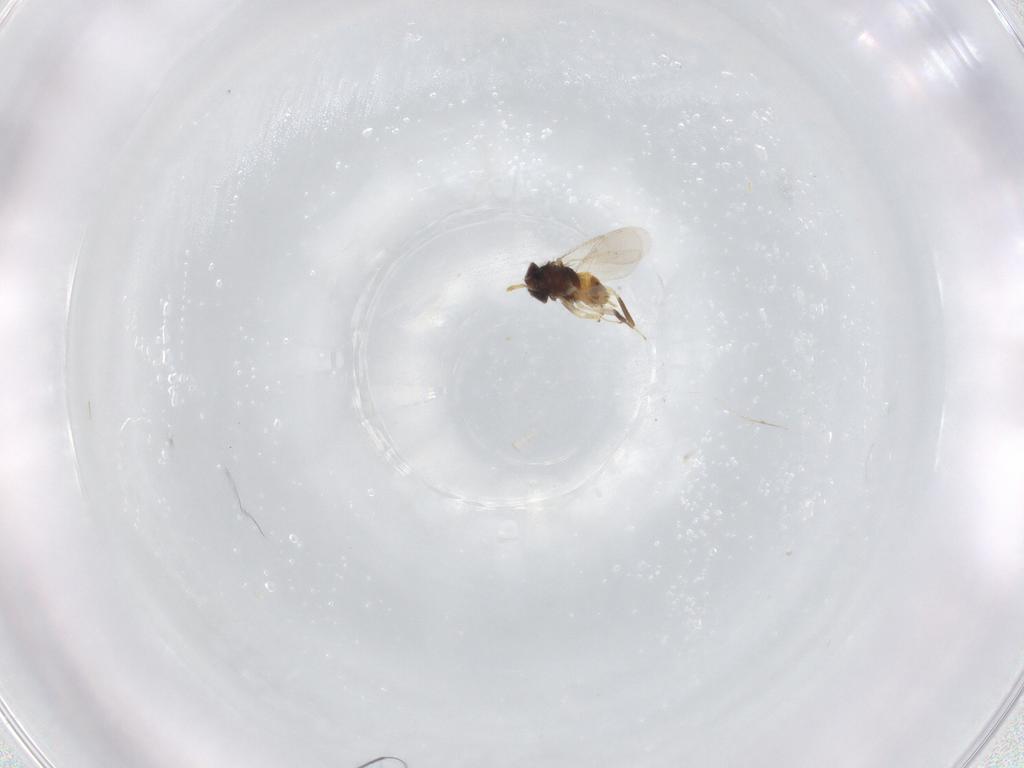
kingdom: Animalia
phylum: Arthropoda
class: Insecta
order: Hymenoptera
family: Aphelinidae
